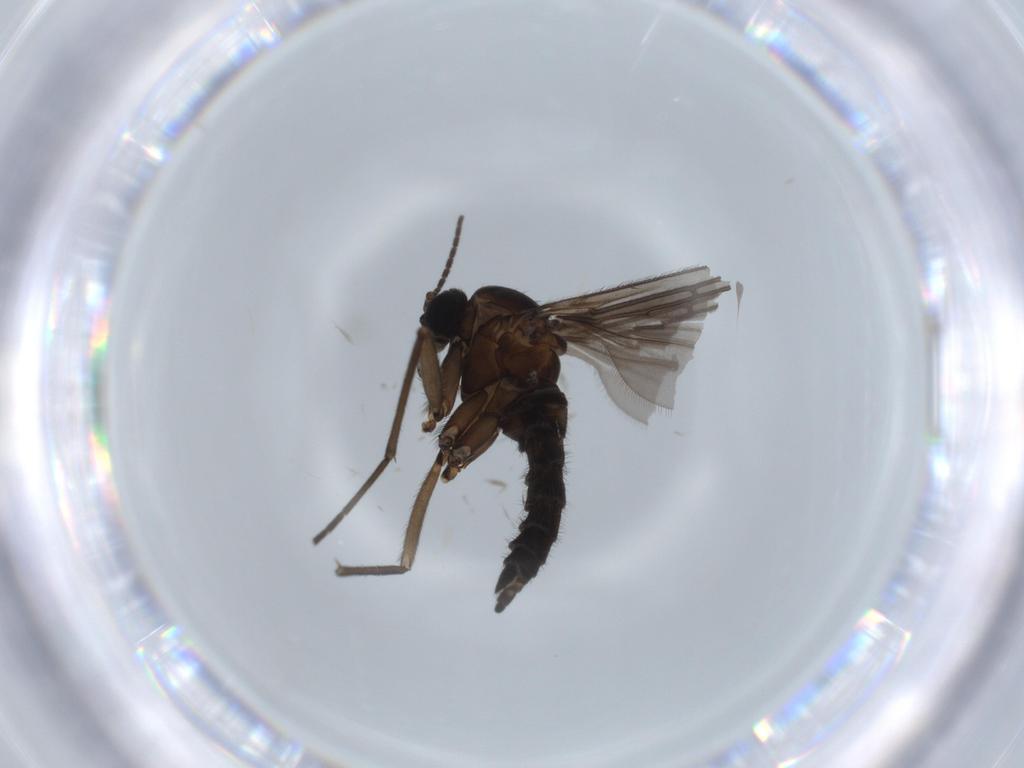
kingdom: Animalia
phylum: Arthropoda
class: Insecta
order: Diptera
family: Sciaridae
